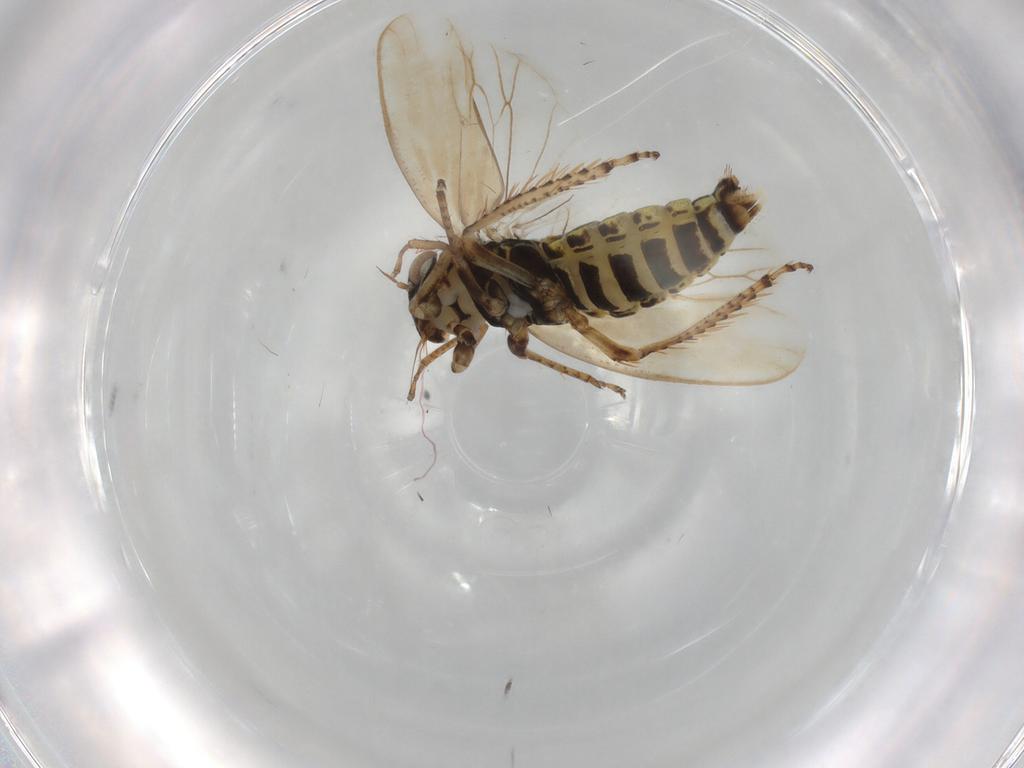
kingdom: Animalia
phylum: Arthropoda
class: Insecta
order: Hemiptera
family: Cicadellidae
